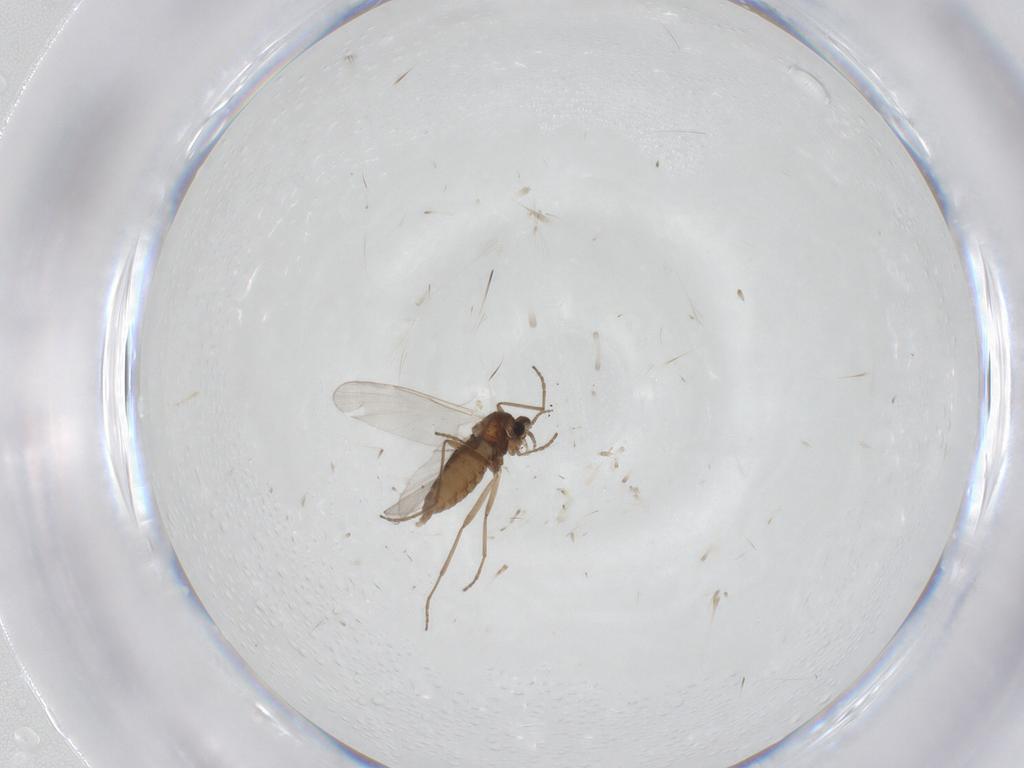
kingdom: Animalia
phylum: Arthropoda
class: Insecta
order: Diptera
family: Cecidomyiidae
